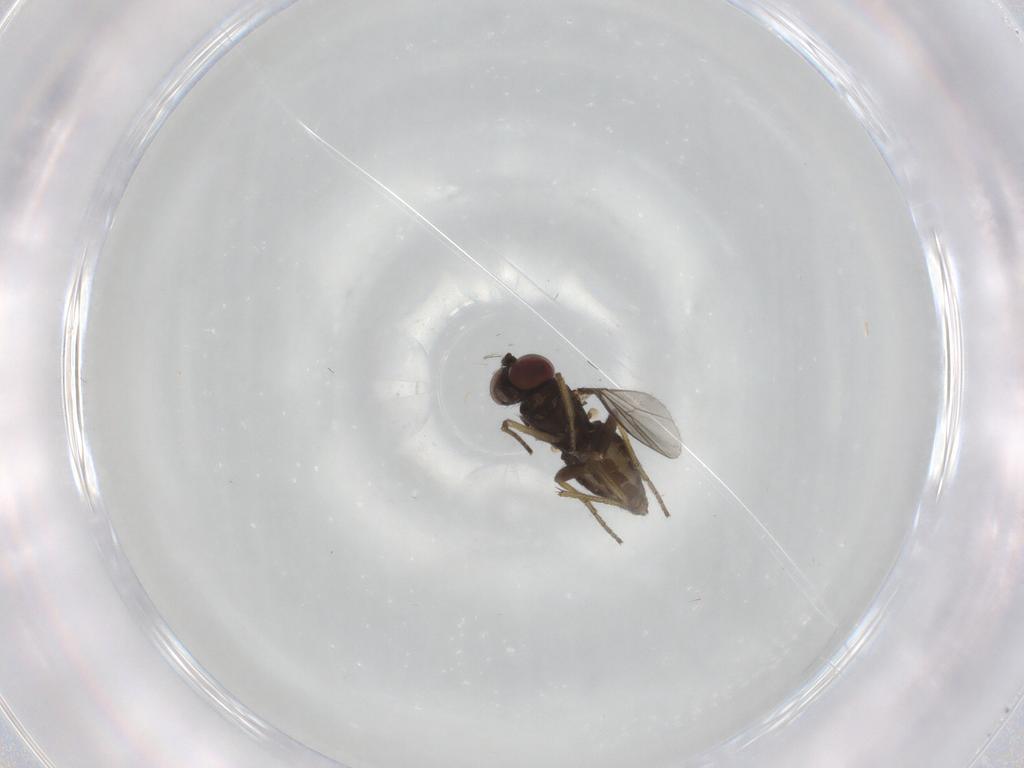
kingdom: Animalia
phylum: Arthropoda
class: Insecta
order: Diptera
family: Dolichopodidae
